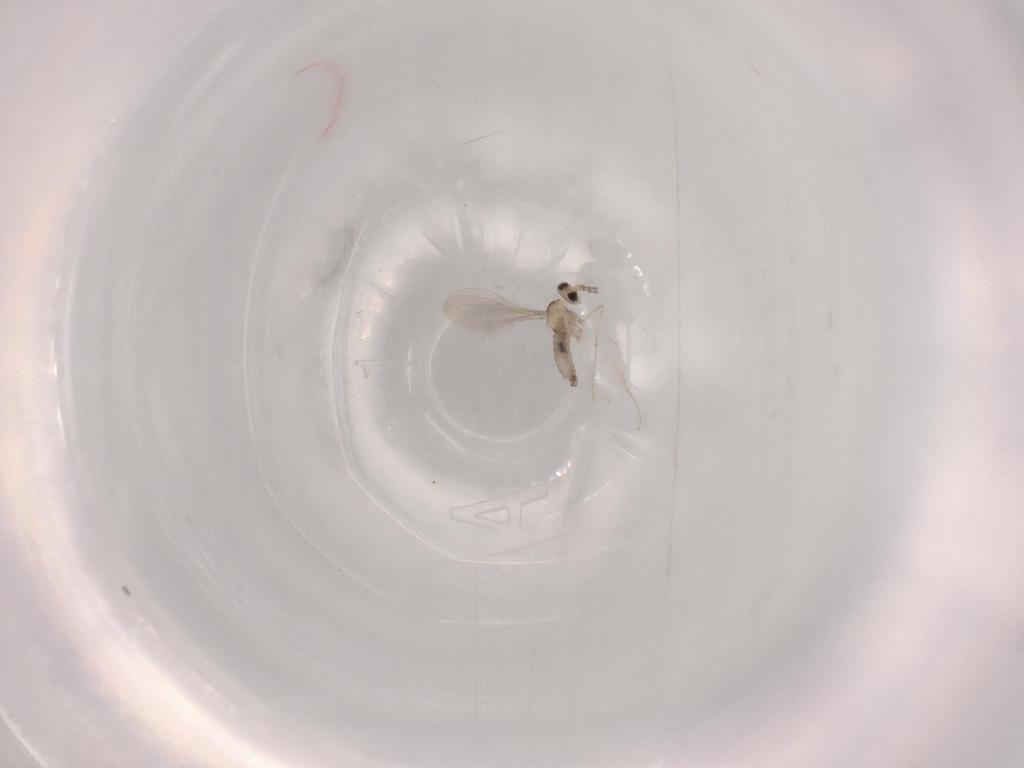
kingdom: Animalia
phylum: Arthropoda
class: Insecta
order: Diptera
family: Cecidomyiidae
